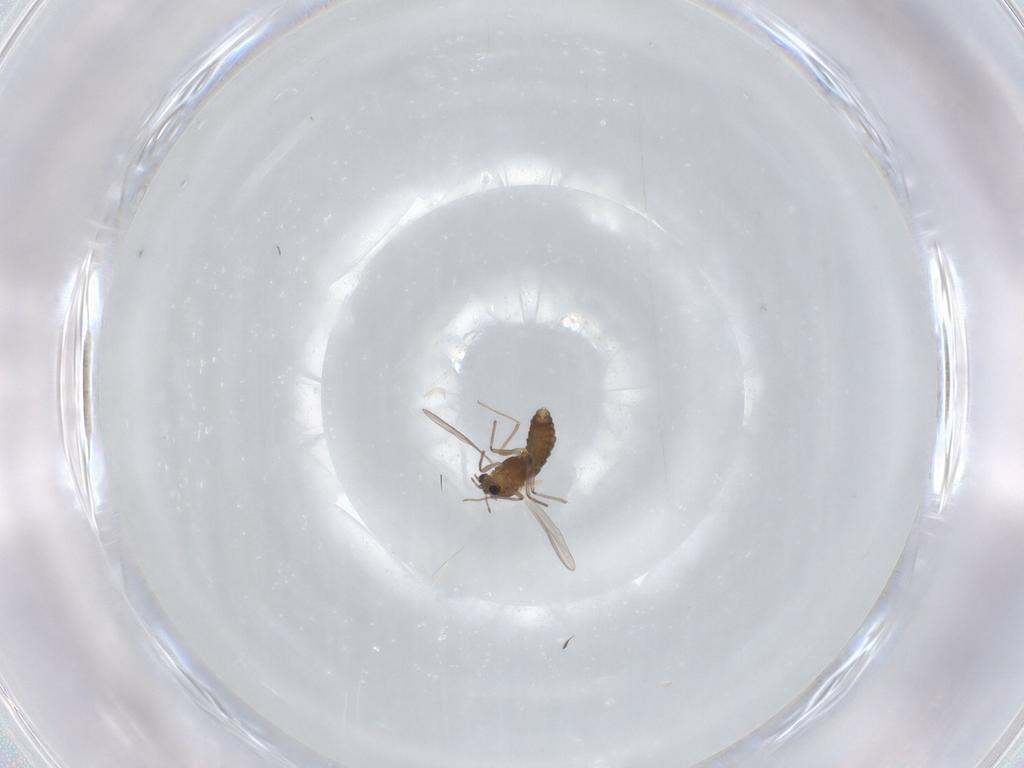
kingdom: Animalia
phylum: Arthropoda
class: Insecta
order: Diptera
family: Chironomidae
